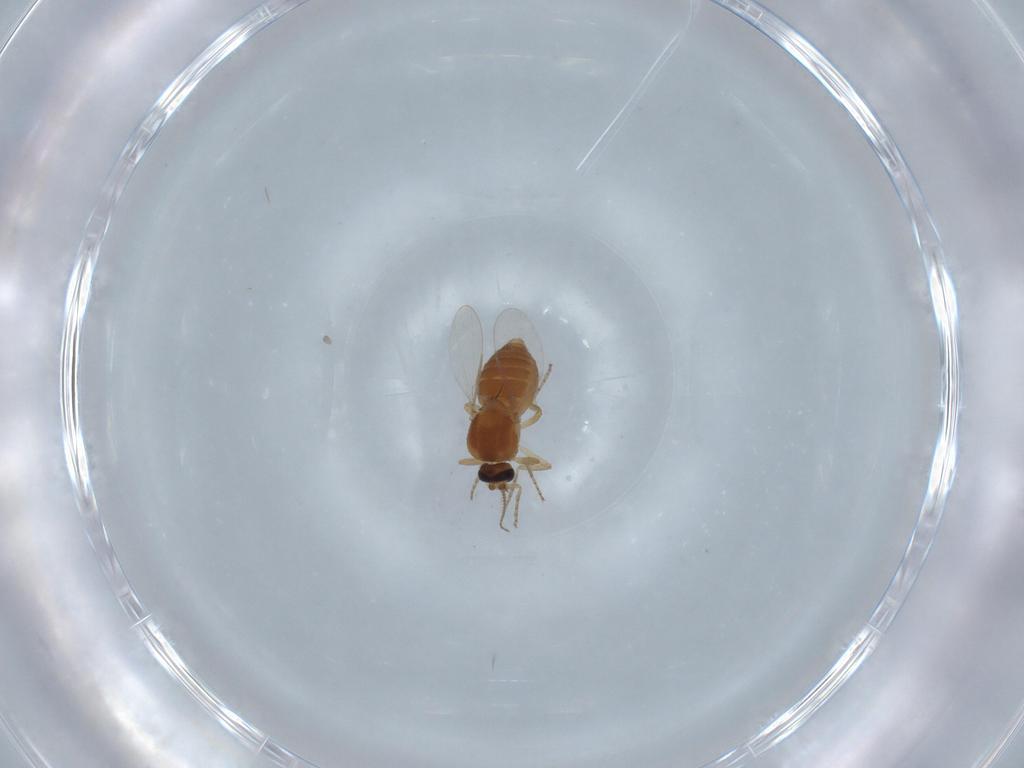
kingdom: Animalia
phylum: Arthropoda
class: Insecta
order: Diptera
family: Ceratopogonidae
